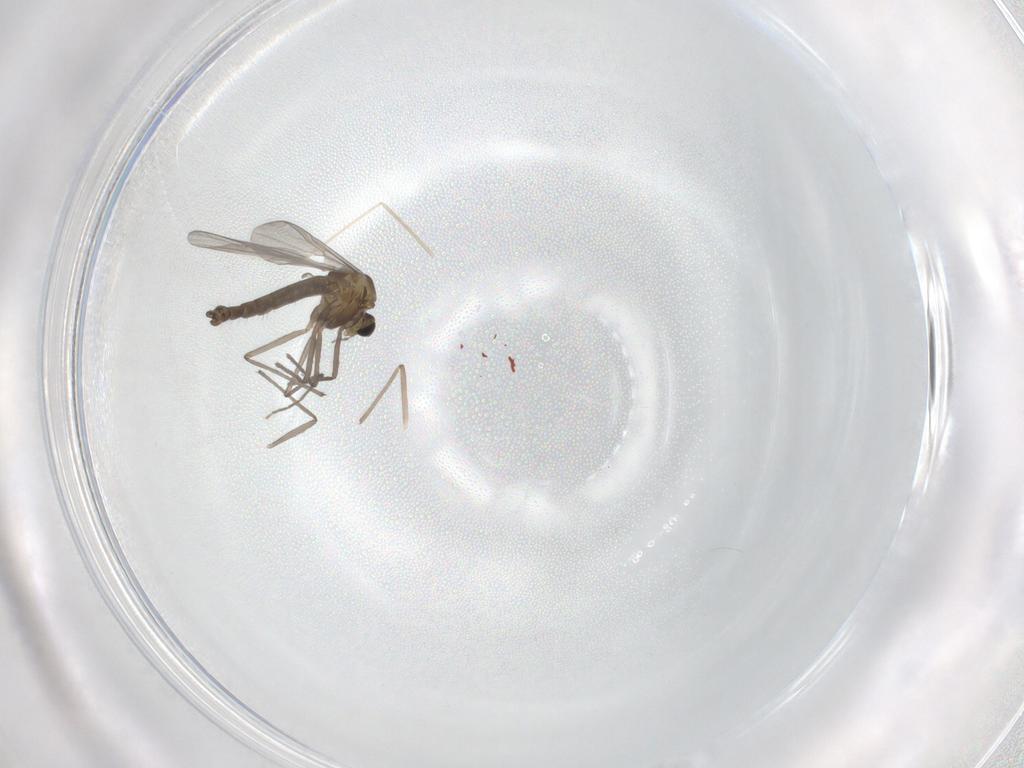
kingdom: Animalia
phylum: Arthropoda
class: Insecta
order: Diptera
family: Chironomidae
